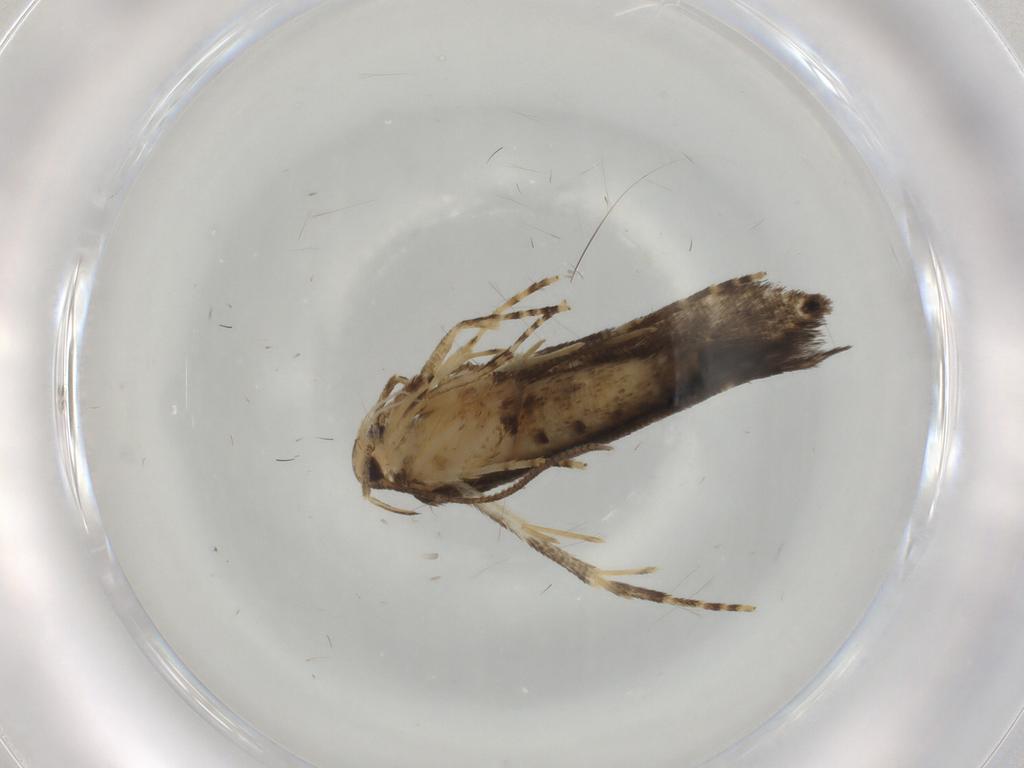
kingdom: Animalia
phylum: Arthropoda
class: Insecta
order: Lepidoptera
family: Cosmopterigidae
